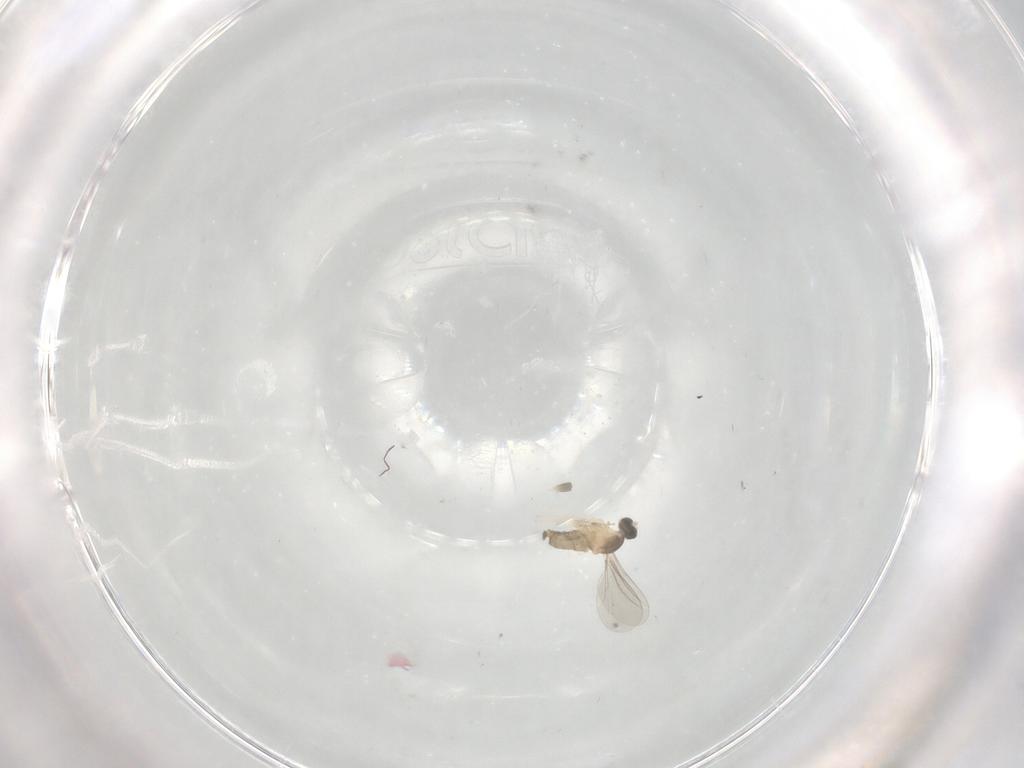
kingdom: Animalia
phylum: Arthropoda
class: Insecta
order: Diptera
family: Cecidomyiidae
